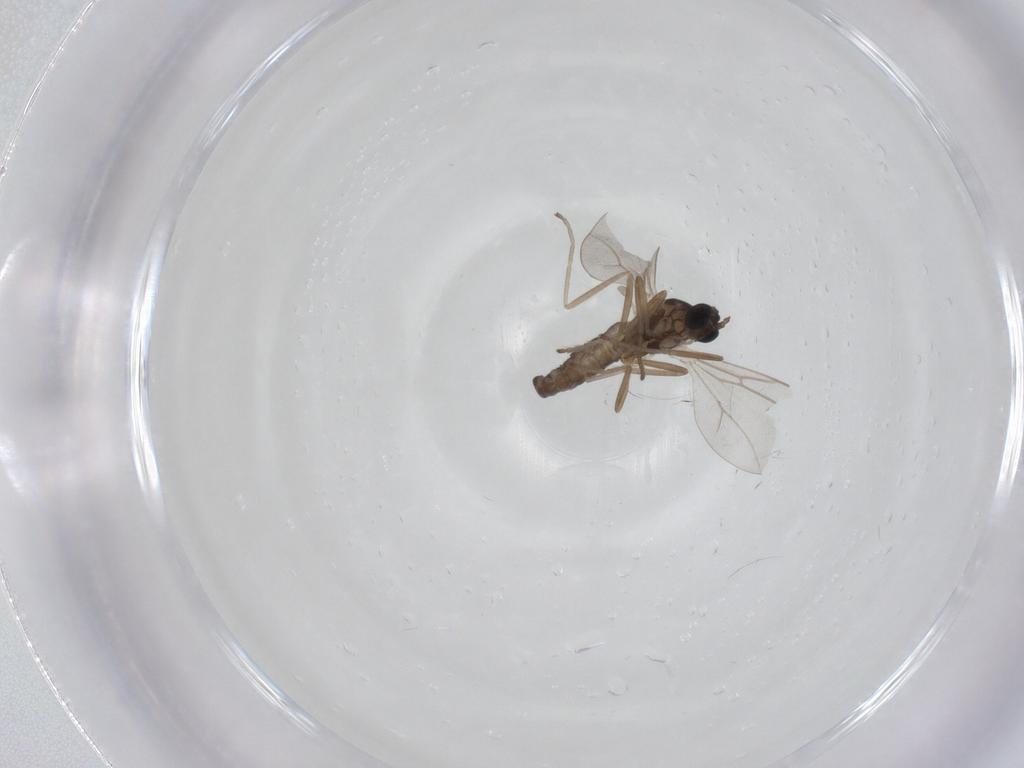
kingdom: Animalia
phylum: Arthropoda
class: Insecta
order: Diptera
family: Cecidomyiidae
